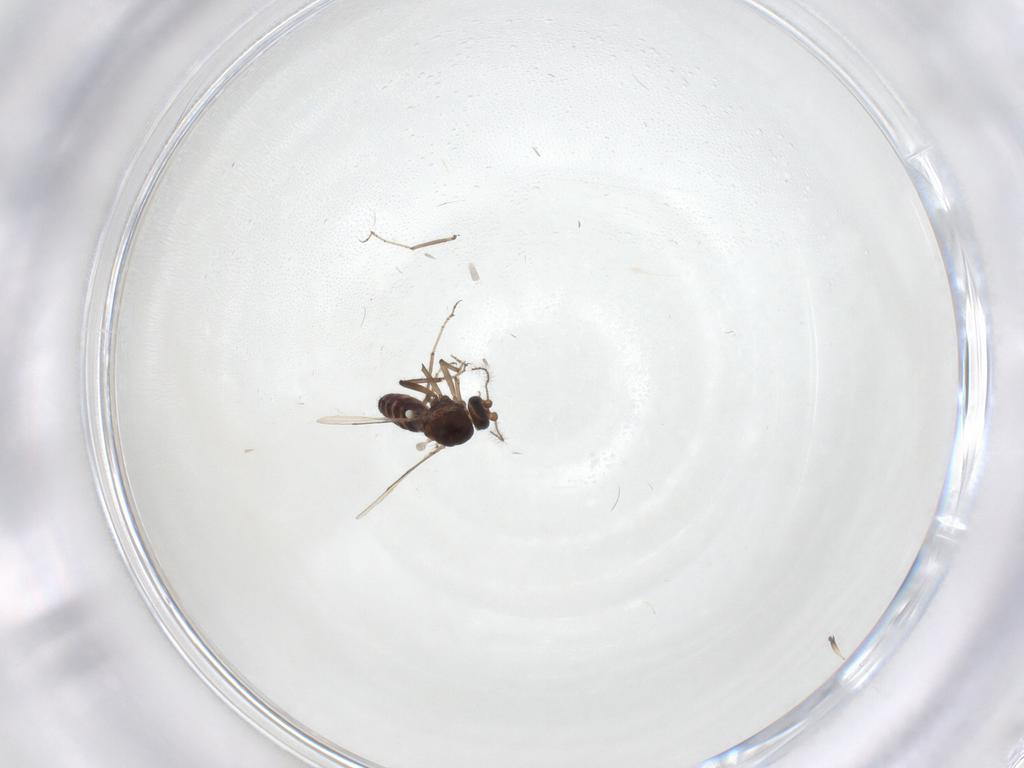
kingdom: Animalia
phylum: Arthropoda
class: Insecta
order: Diptera
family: Ceratopogonidae
